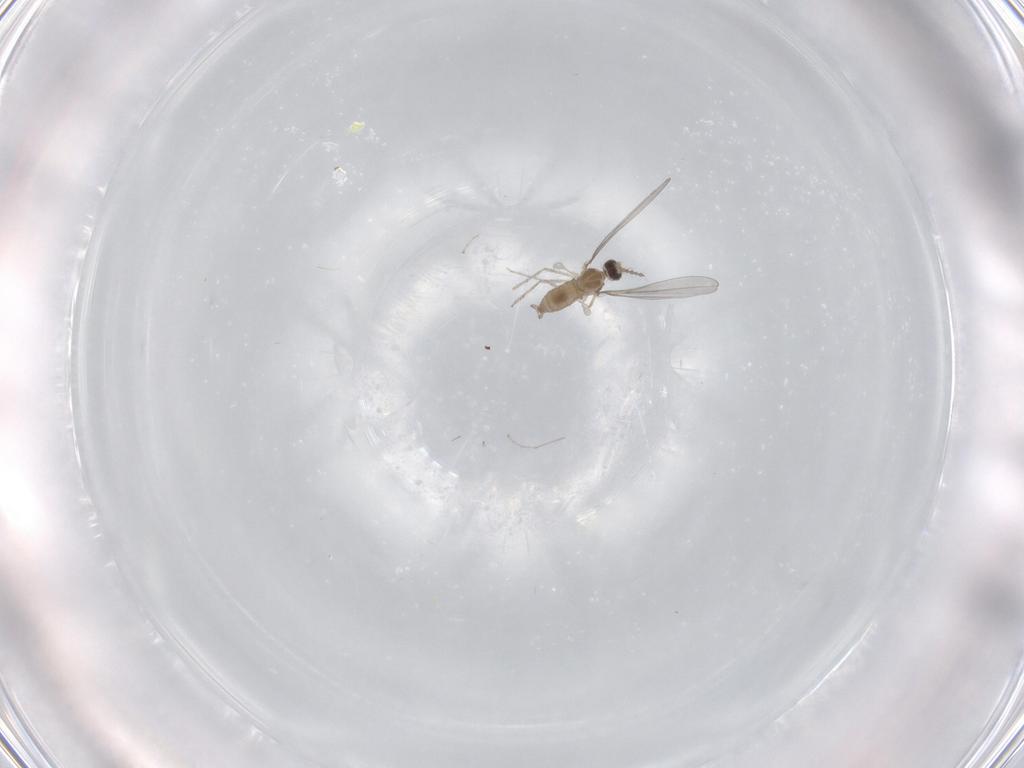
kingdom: Animalia
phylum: Arthropoda
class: Insecta
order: Diptera
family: Cecidomyiidae
